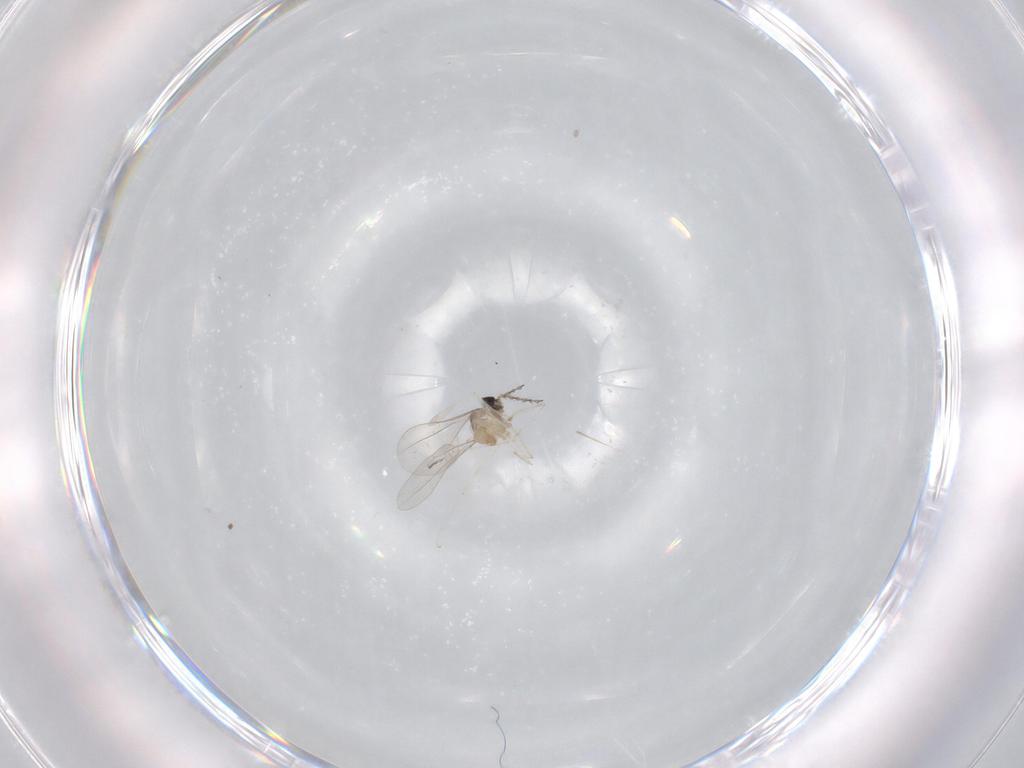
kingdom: Animalia
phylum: Arthropoda
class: Insecta
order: Diptera
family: Cecidomyiidae
